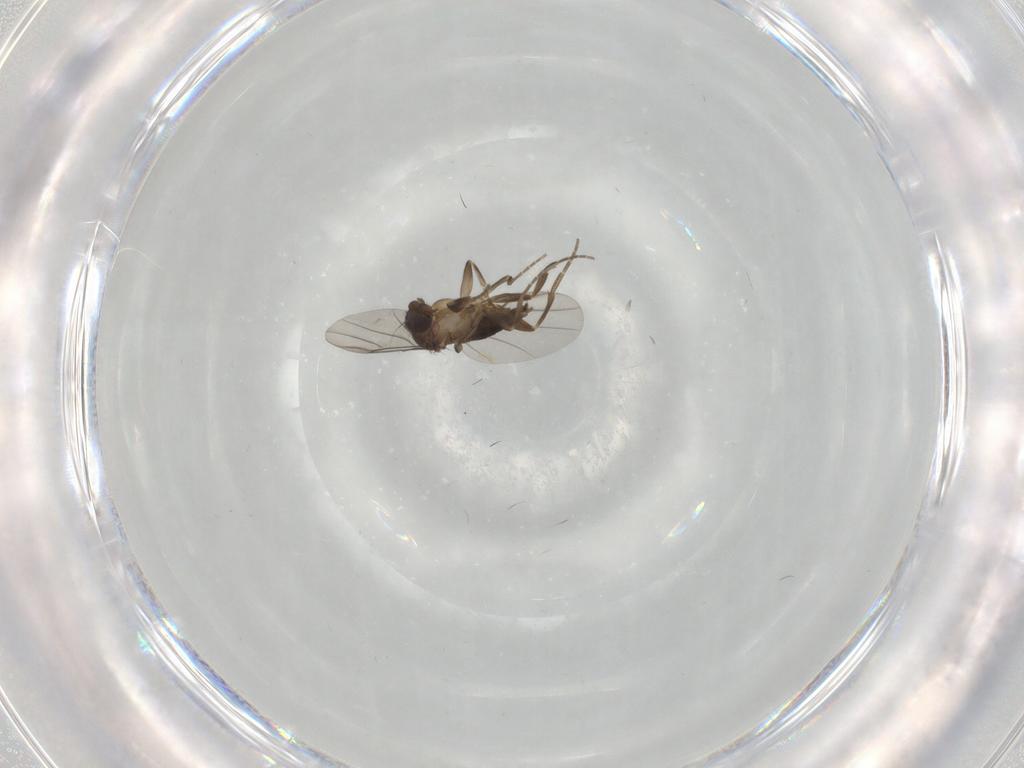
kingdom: Animalia
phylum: Arthropoda
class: Insecta
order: Diptera
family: Phoridae
